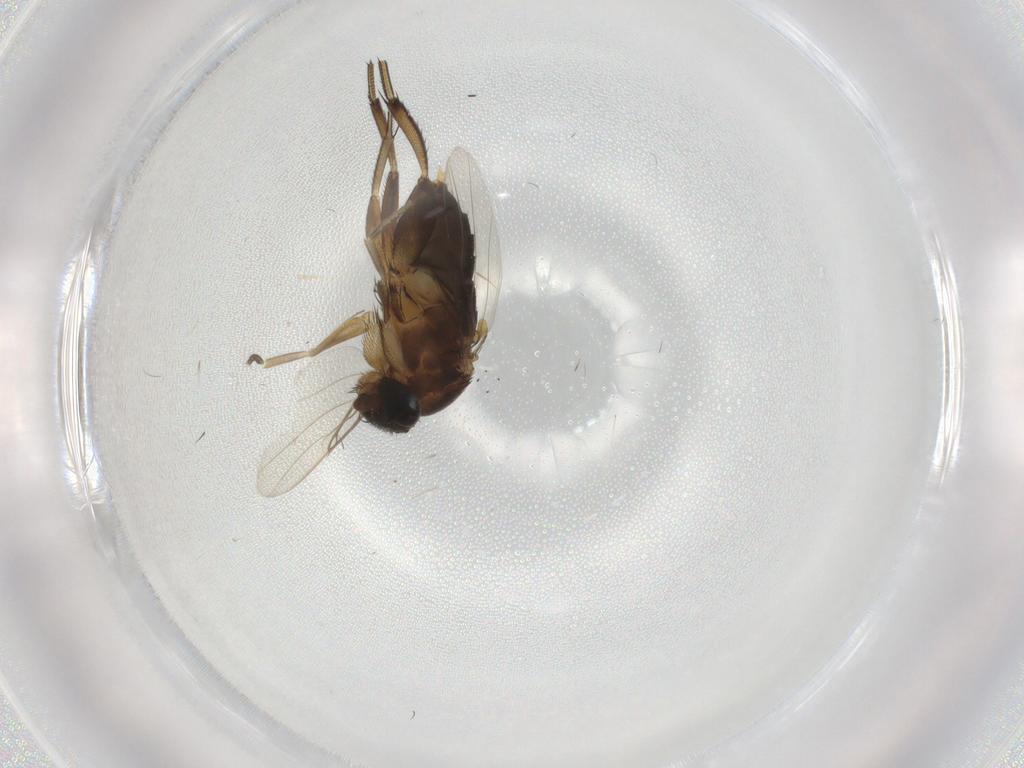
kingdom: Animalia
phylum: Arthropoda
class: Insecta
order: Diptera
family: Phoridae
